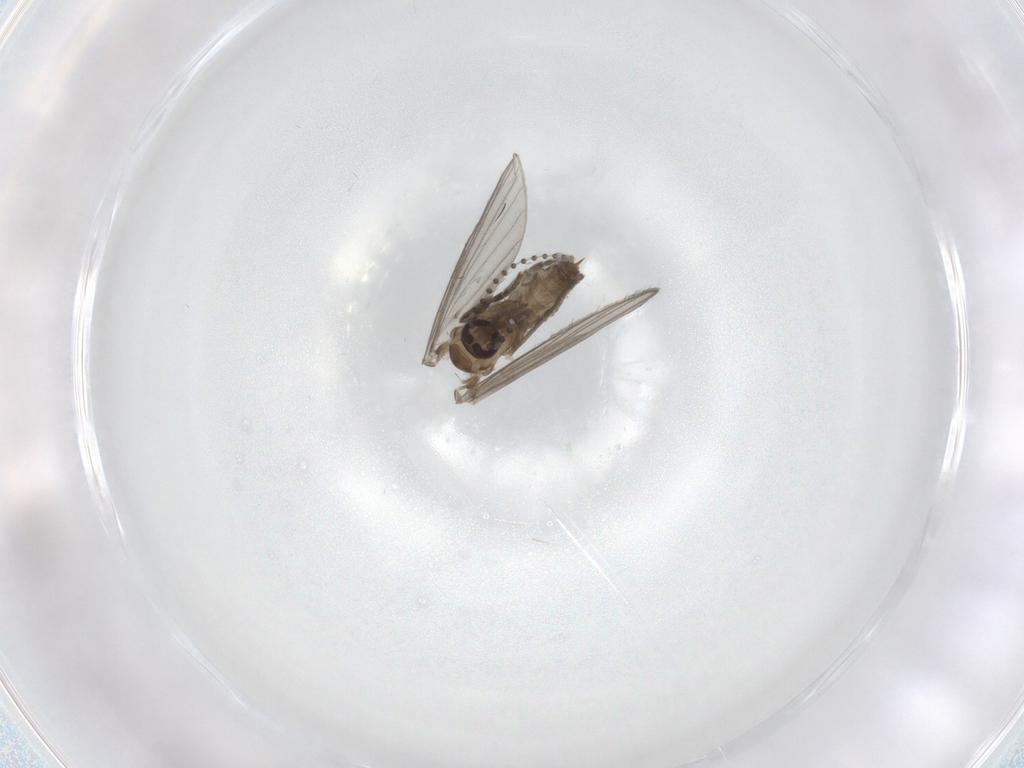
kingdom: Animalia
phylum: Arthropoda
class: Insecta
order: Diptera
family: Psychodidae
